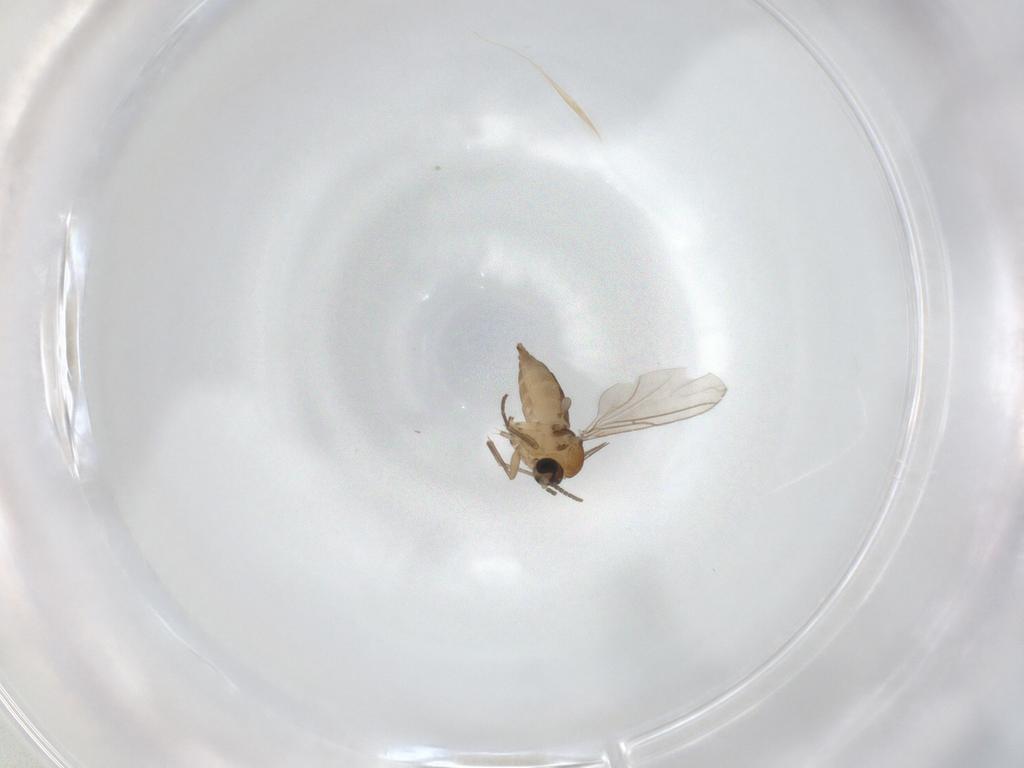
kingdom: Animalia
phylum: Arthropoda
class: Insecta
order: Diptera
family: Sciaridae
